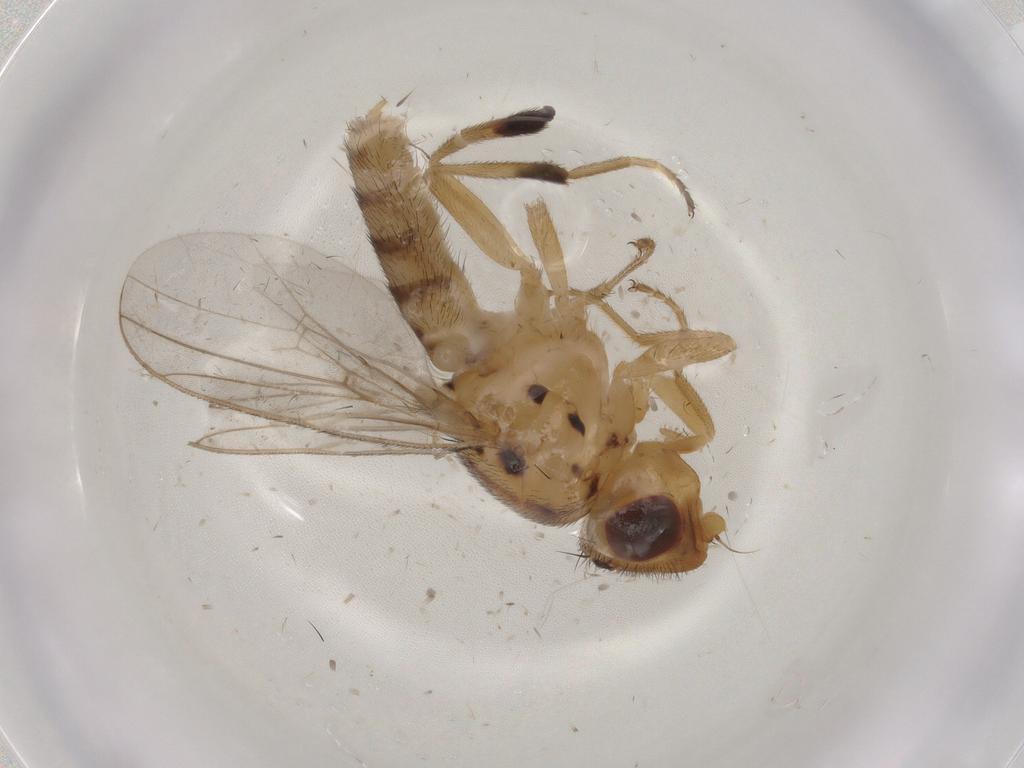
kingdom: Animalia
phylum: Arthropoda
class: Insecta
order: Diptera
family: Chloropidae
